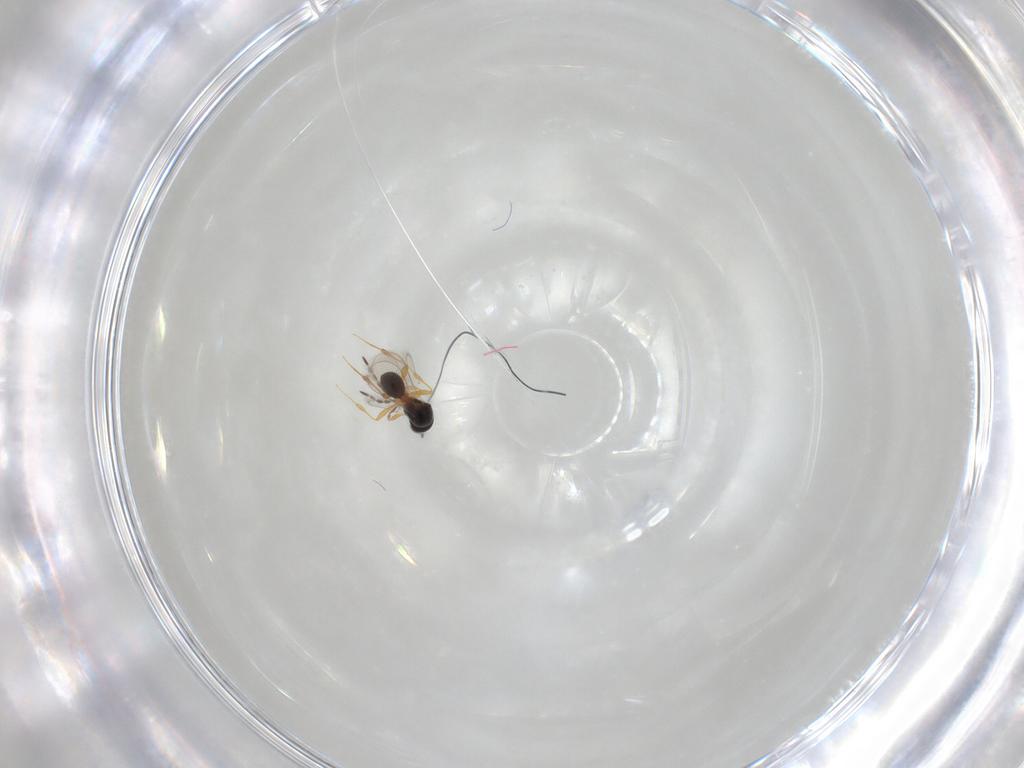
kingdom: Animalia
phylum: Arthropoda
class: Insecta
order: Hymenoptera
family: Platygastridae
